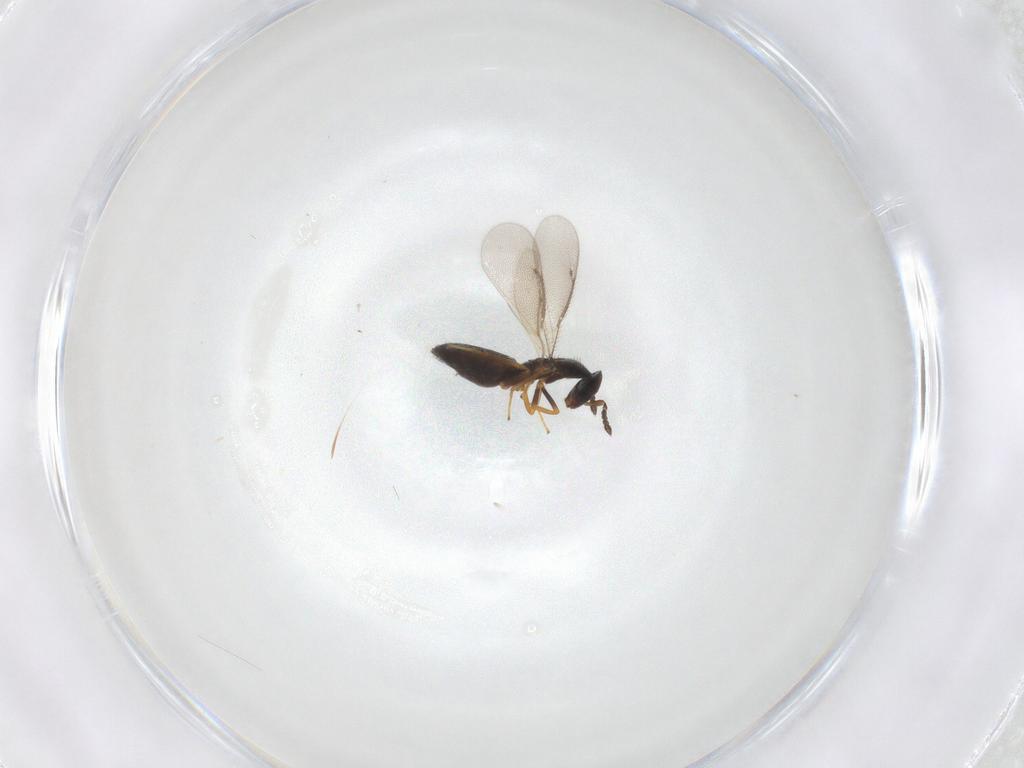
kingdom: Animalia
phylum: Arthropoda
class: Insecta
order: Hymenoptera
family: Eulophidae
